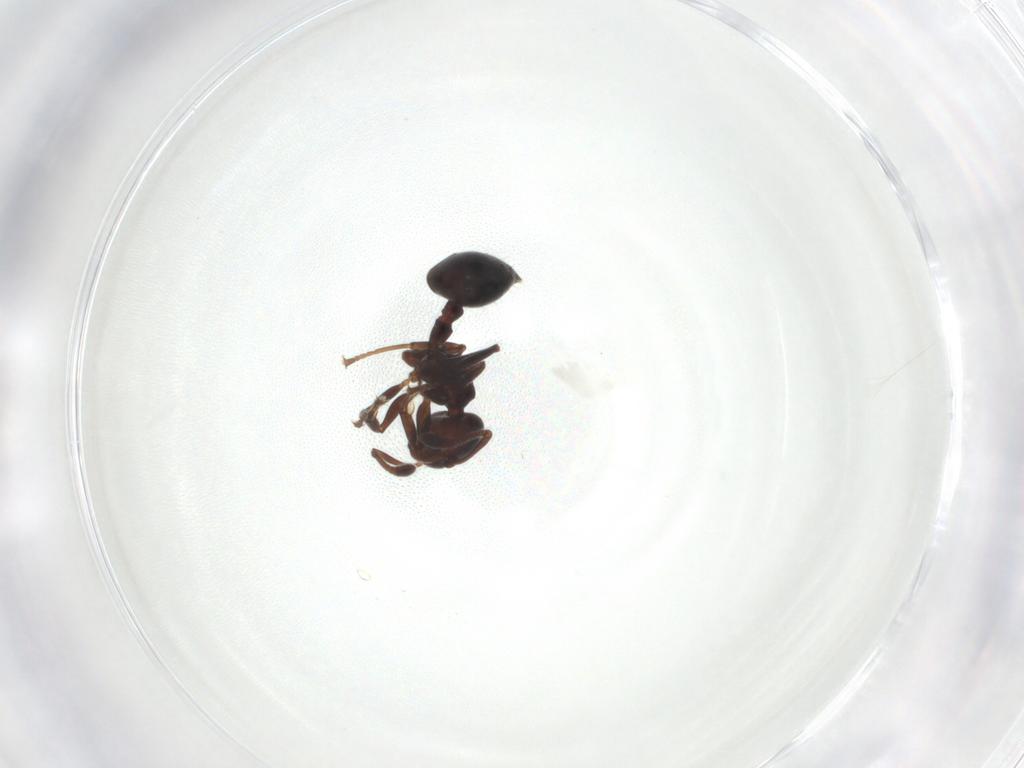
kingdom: Animalia
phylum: Arthropoda
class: Insecta
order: Hymenoptera
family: Formicidae
